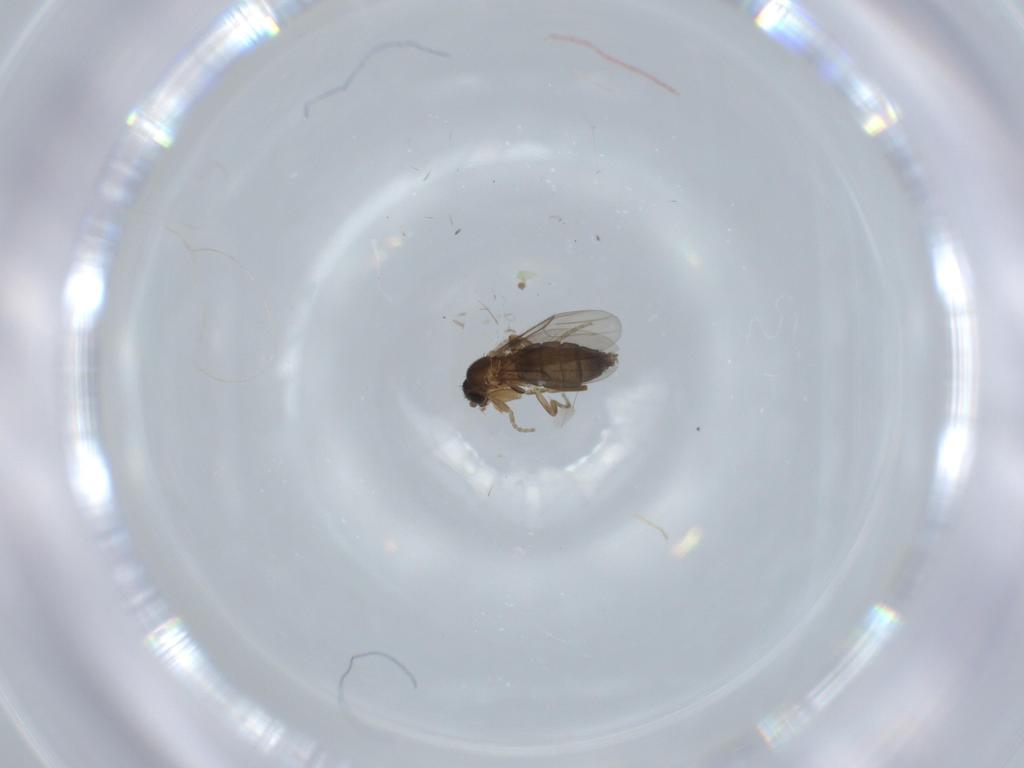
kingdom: Animalia
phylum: Arthropoda
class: Insecta
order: Diptera
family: Phoridae
